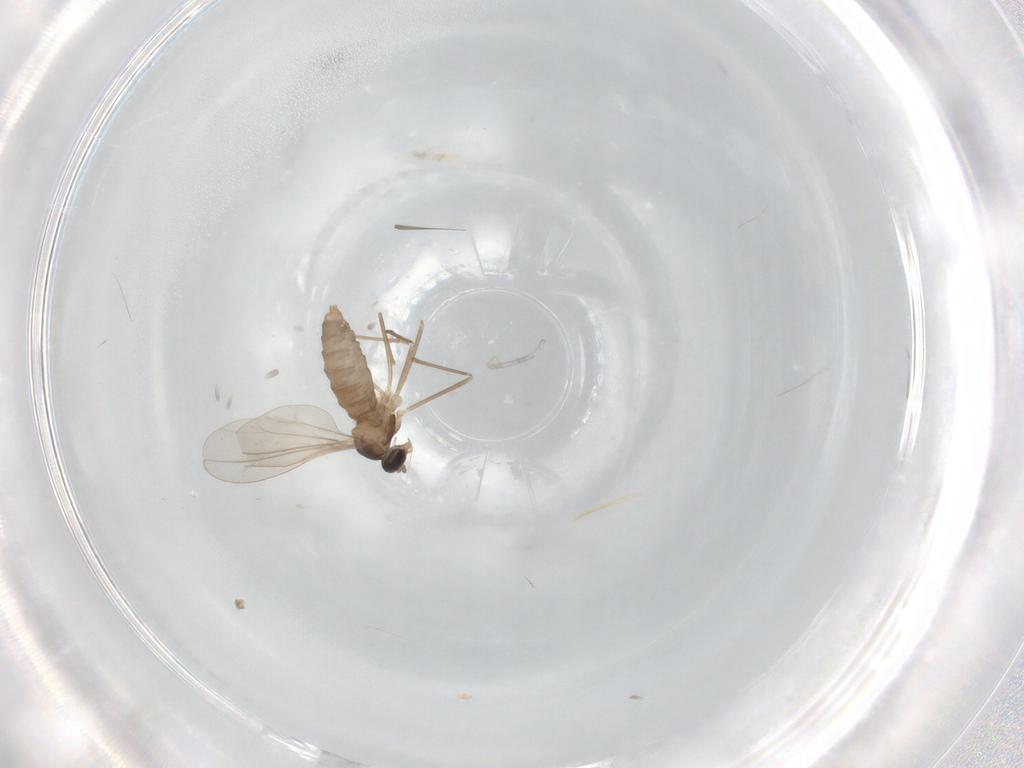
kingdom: Animalia
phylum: Arthropoda
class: Insecta
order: Diptera
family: Cecidomyiidae
